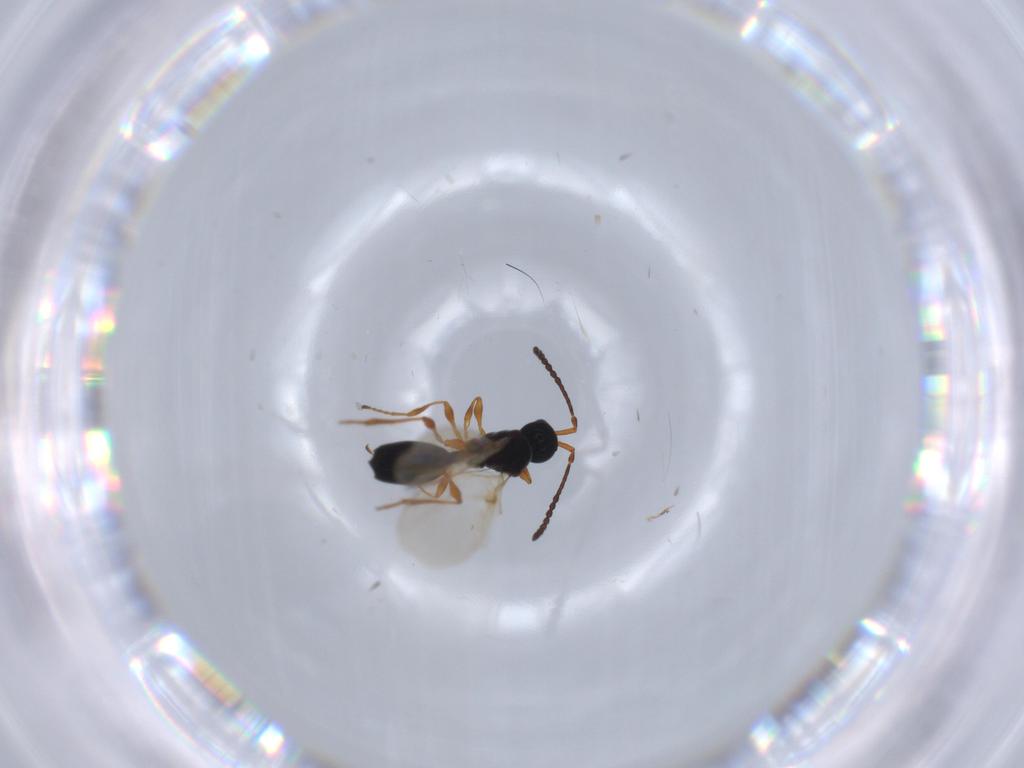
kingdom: Animalia
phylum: Arthropoda
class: Insecta
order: Hymenoptera
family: Diapriidae
